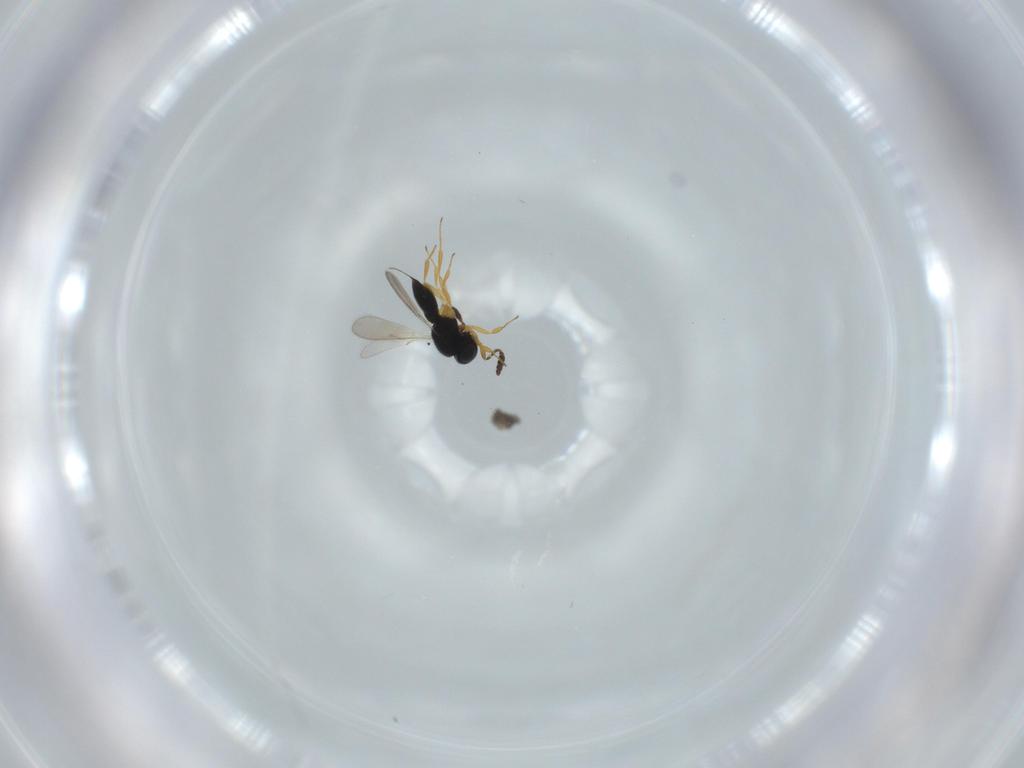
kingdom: Animalia
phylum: Arthropoda
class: Insecta
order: Hymenoptera
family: Scelionidae
